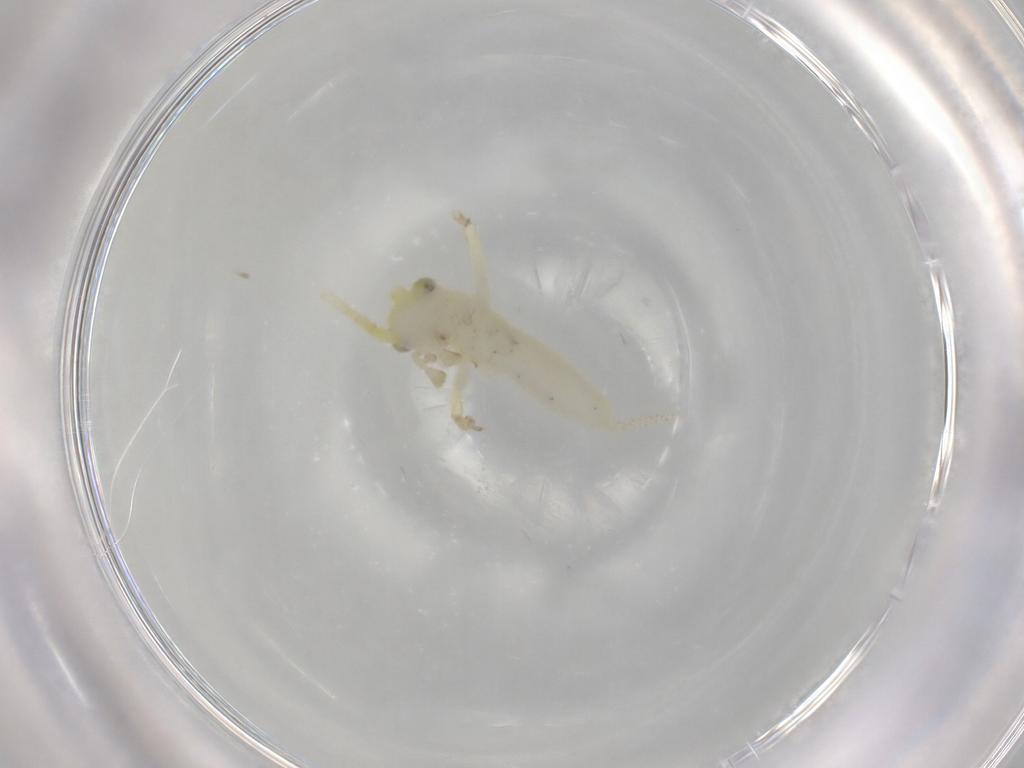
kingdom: Animalia
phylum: Arthropoda
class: Insecta
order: Orthoptera
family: Trigonidiidae
